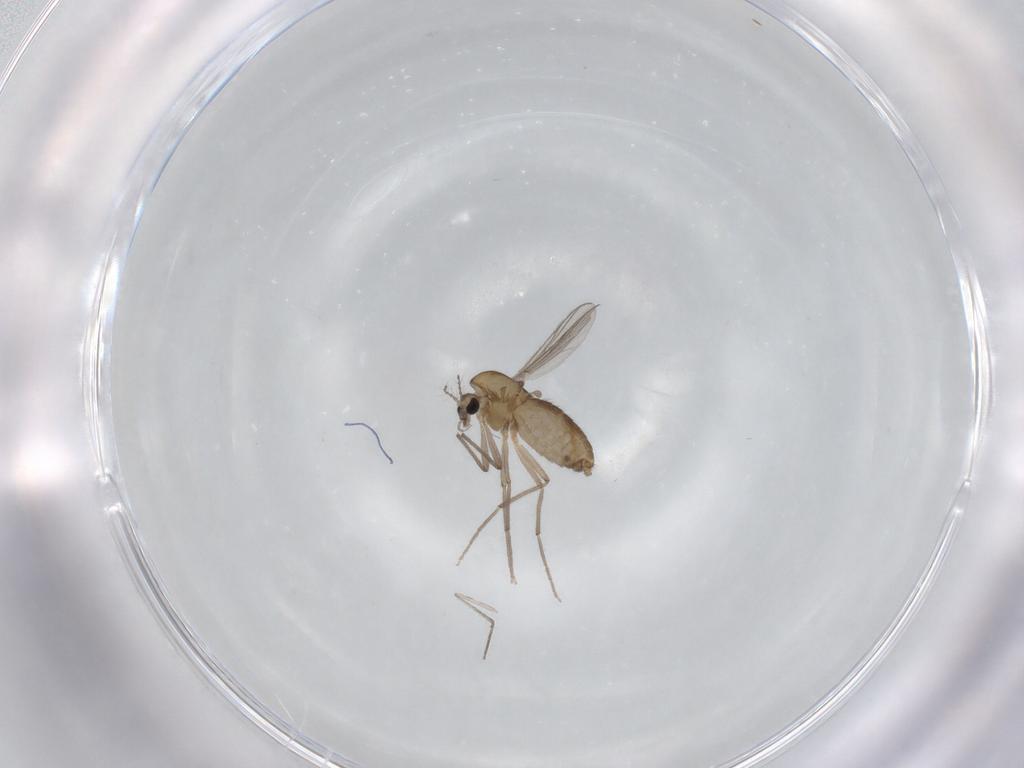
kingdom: Animalia
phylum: Arthropoda
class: Insecta
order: Diptera
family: Chironomidae
